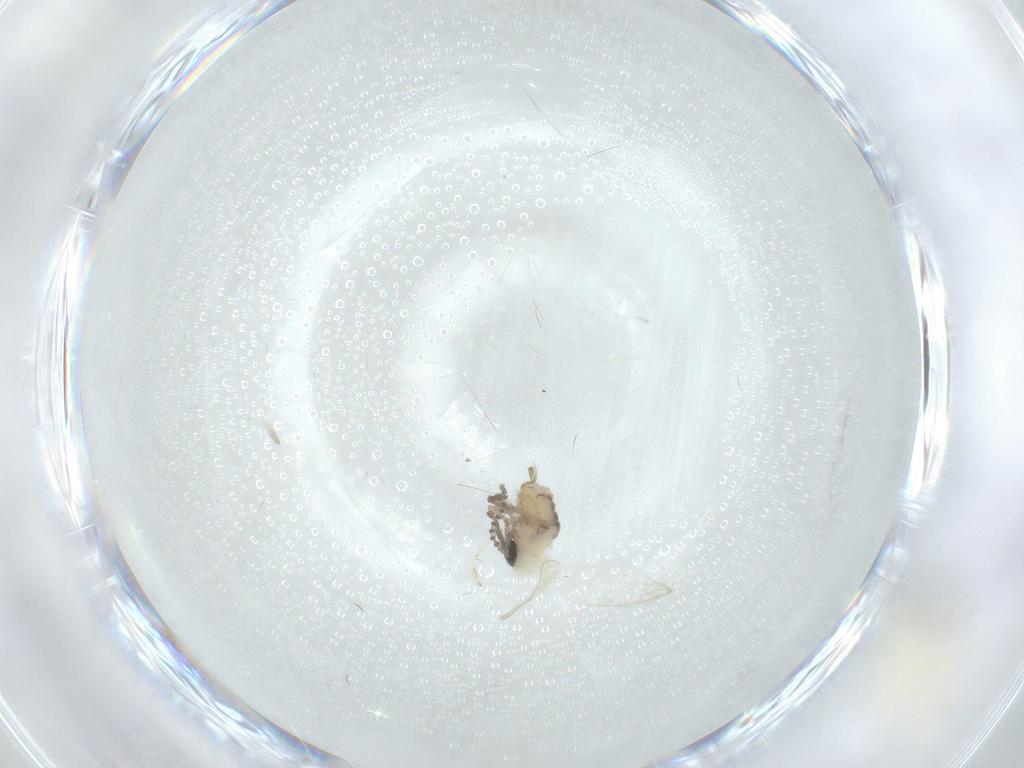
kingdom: Animalia
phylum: Arthropoda
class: Insecta
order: Diptera
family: Psychodidae
